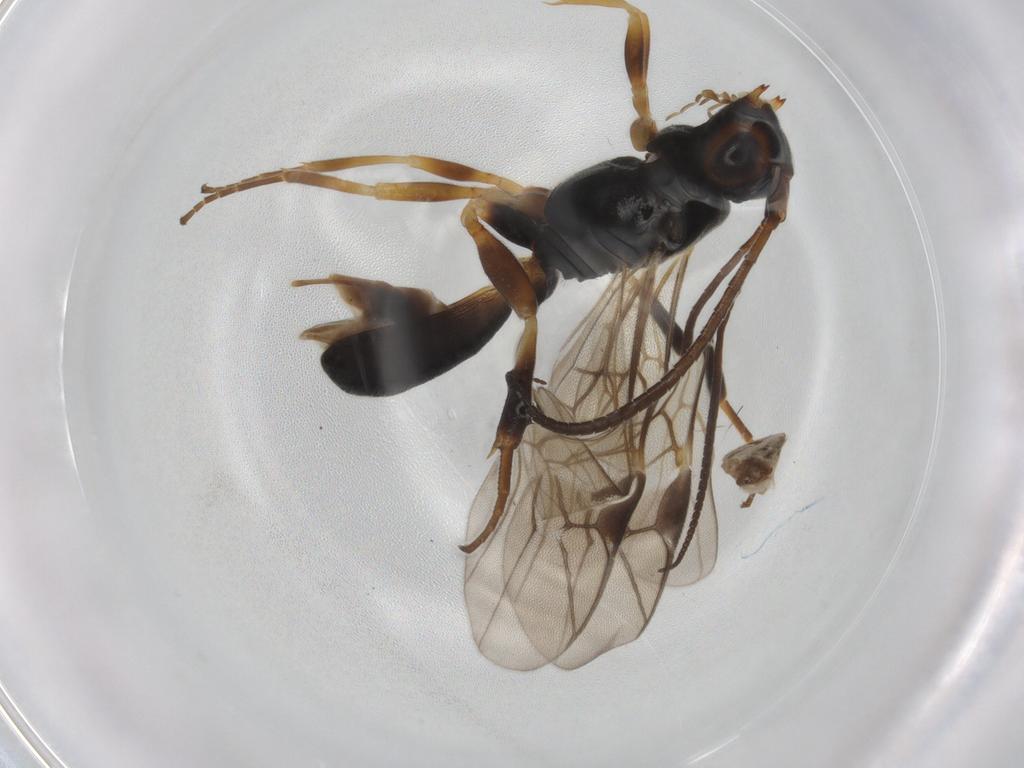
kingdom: Animalia
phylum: Arthropoda
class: Insecta
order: Hymenoptera
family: Braconidae
